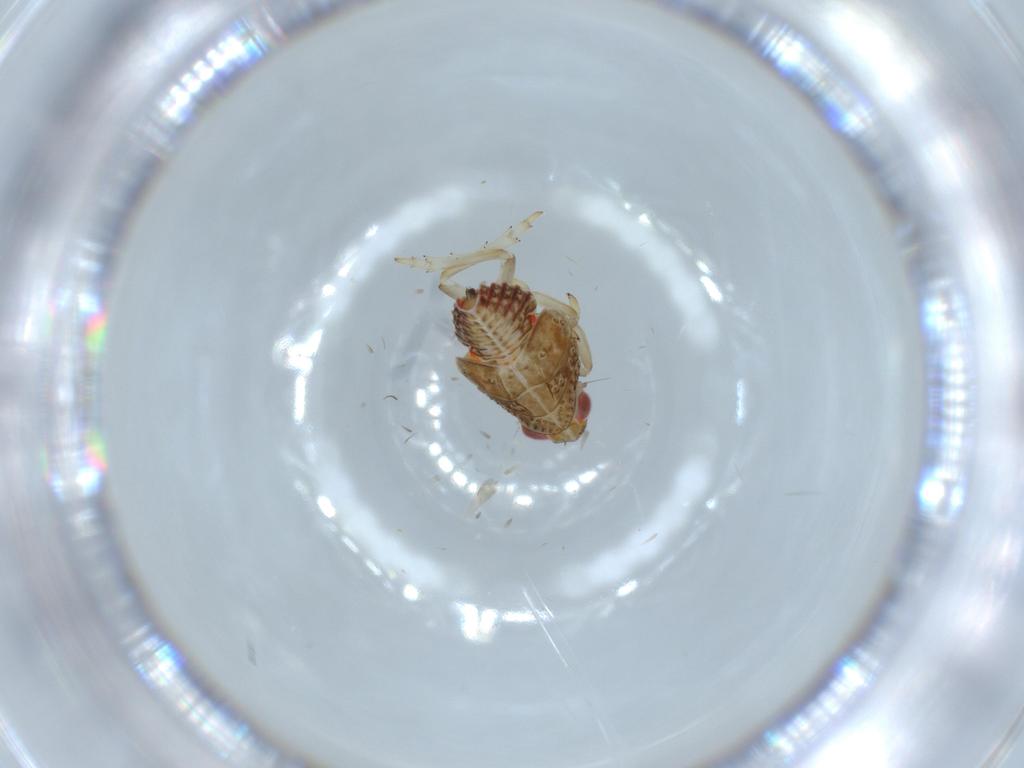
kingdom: Animalia
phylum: Arthropoda
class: Insecta
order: Hemiptera
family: Issidae
